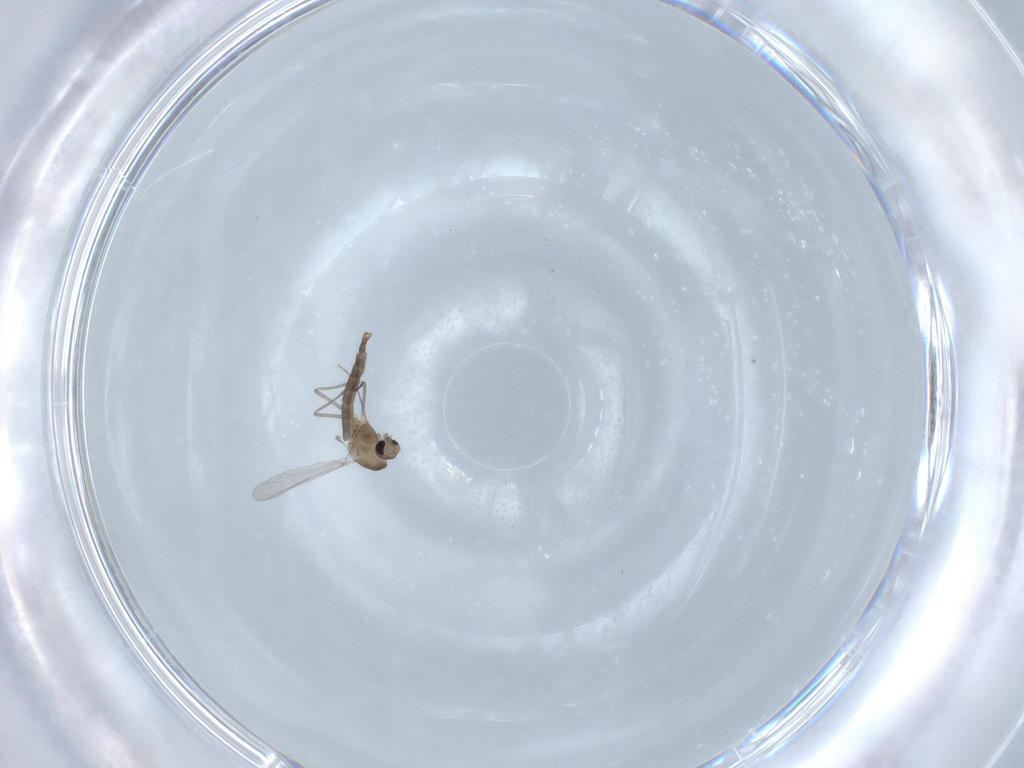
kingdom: Animalia
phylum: Arthropoda
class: Insecta
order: Diptera
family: Chironomidae
